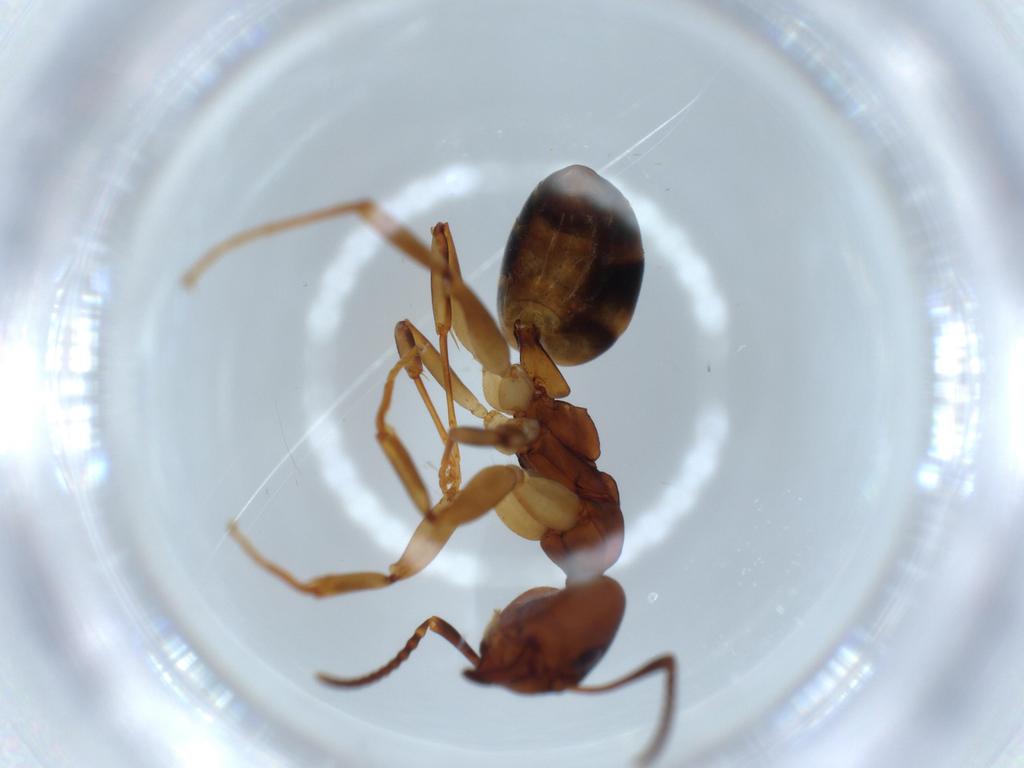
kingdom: Animalia
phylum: Arthropoda
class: Insecta
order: Hymenoptera
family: Formicidae
